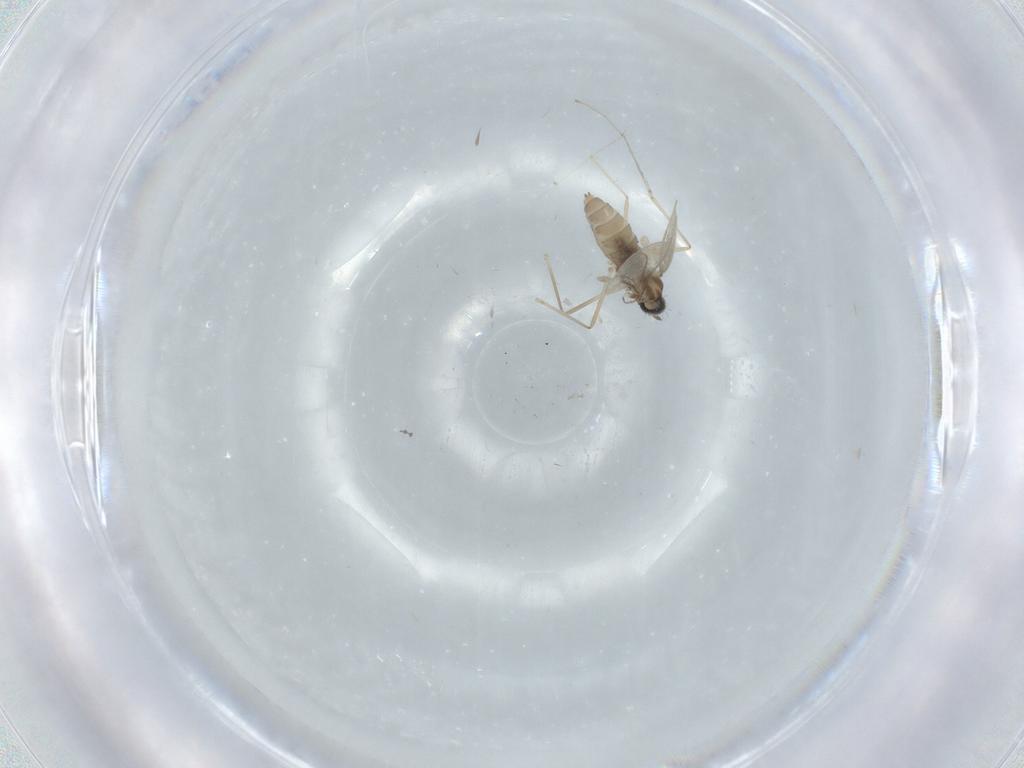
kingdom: Animalia
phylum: Arthropoda
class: Insecta
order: Diptera
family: Cecidomyiidae
